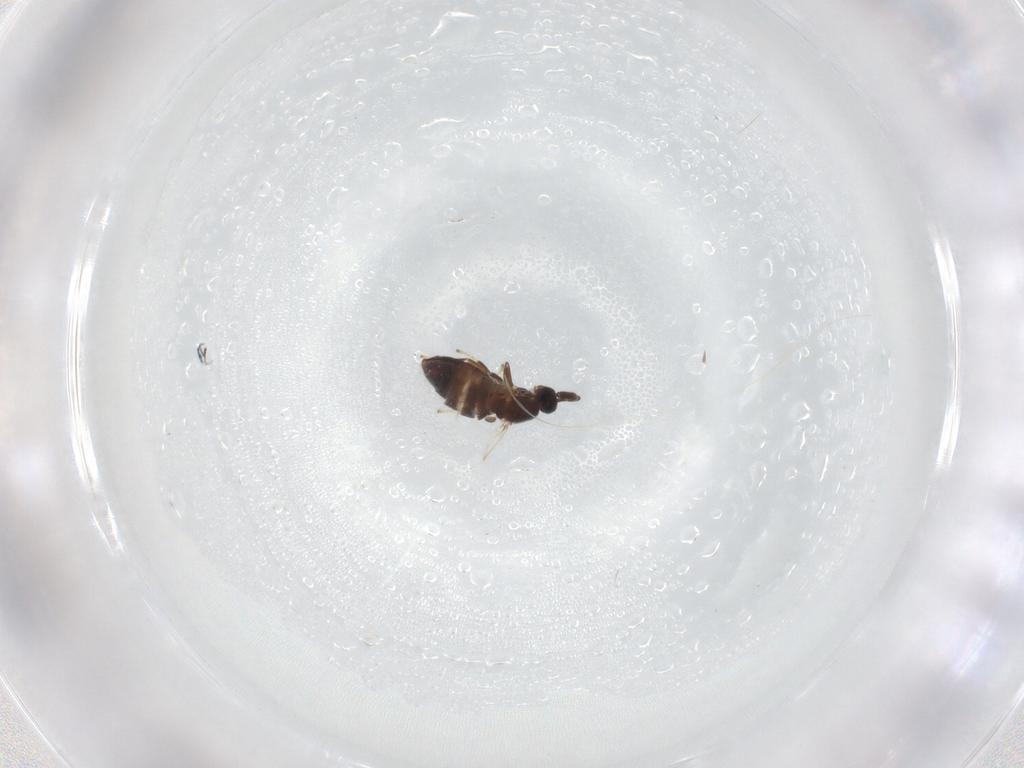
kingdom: Animalia
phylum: Arthropoda
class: Insecta
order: Diptera
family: Scatopsidae
